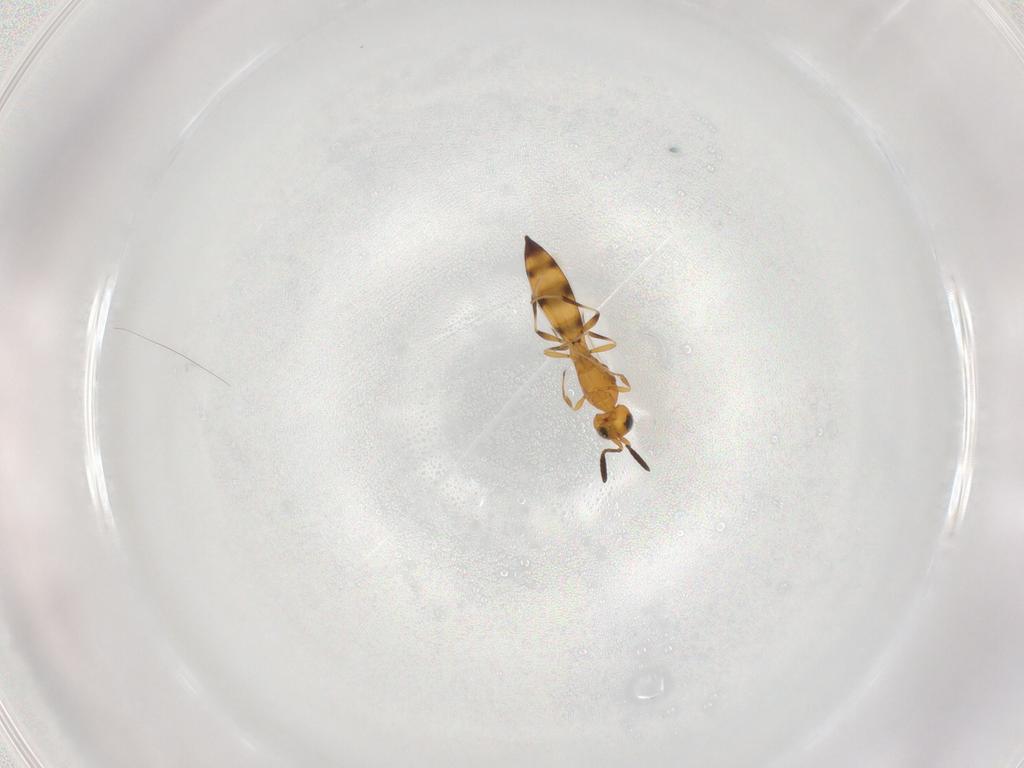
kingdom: Animalia
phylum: Arthropoda
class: Insecta
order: Hymenoptera
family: Scelionidae
